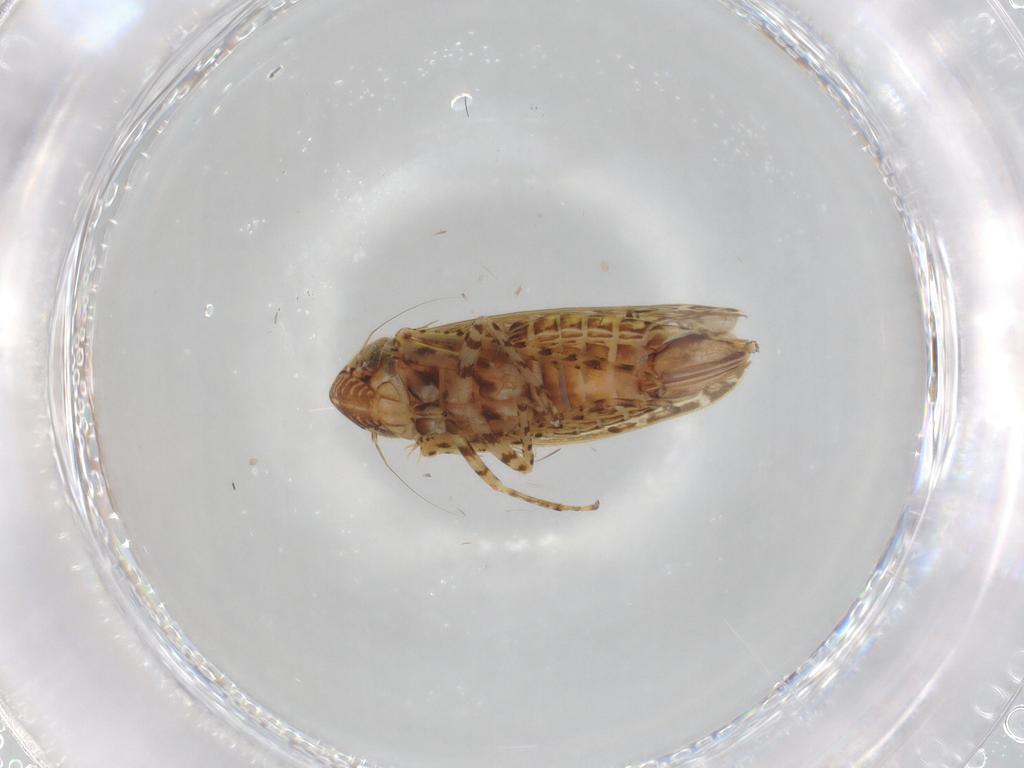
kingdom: Animalia
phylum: Arthropoda
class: Insecta
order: Hemiptera
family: Cicadellidae
